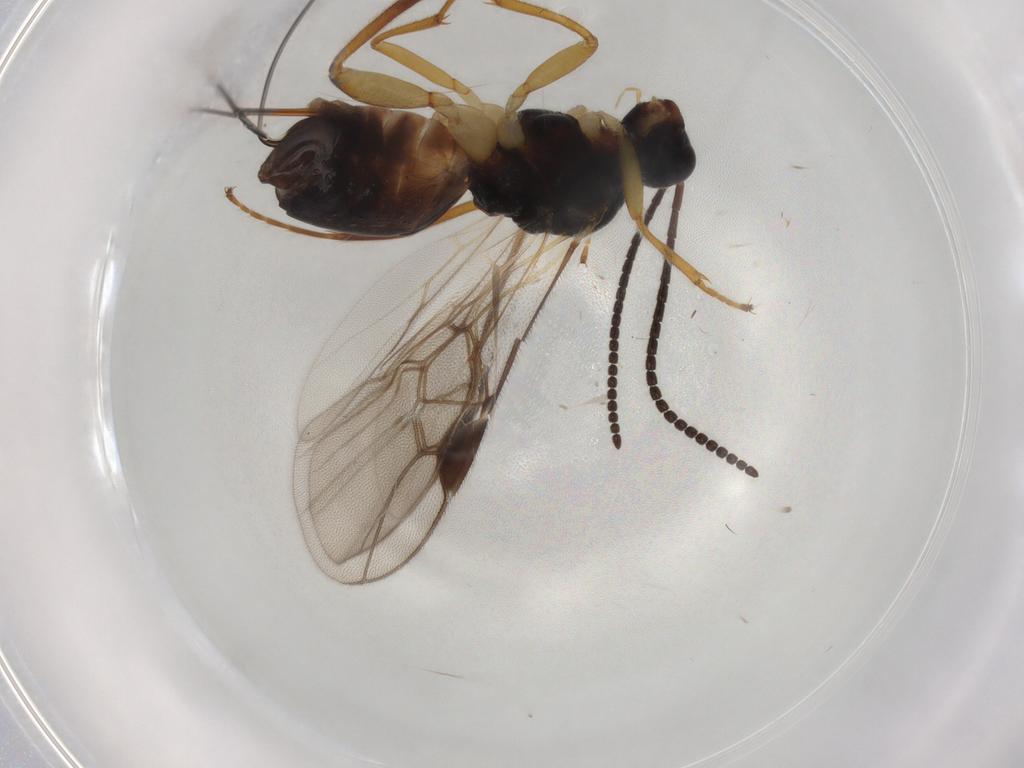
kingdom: Animalia
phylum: Arthropoda
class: Insecta
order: Hymenoptera
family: Braconidae
